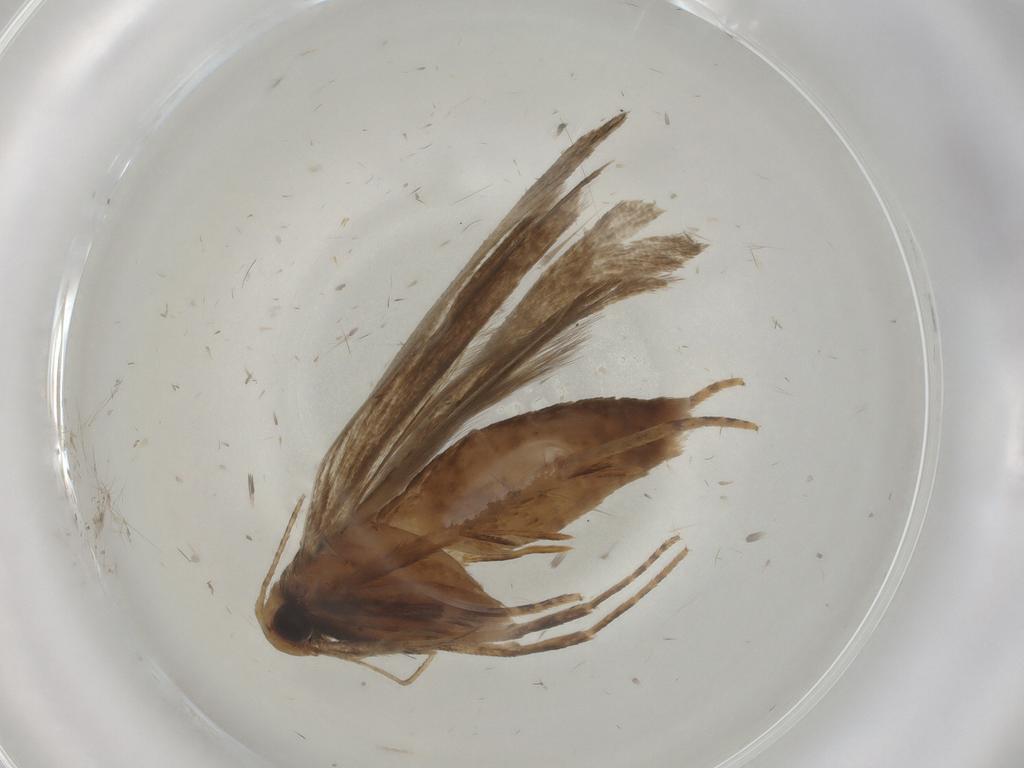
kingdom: Animalia
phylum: Arthropoda
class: Insecta
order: Lepidoptera
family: Gelechiidae
